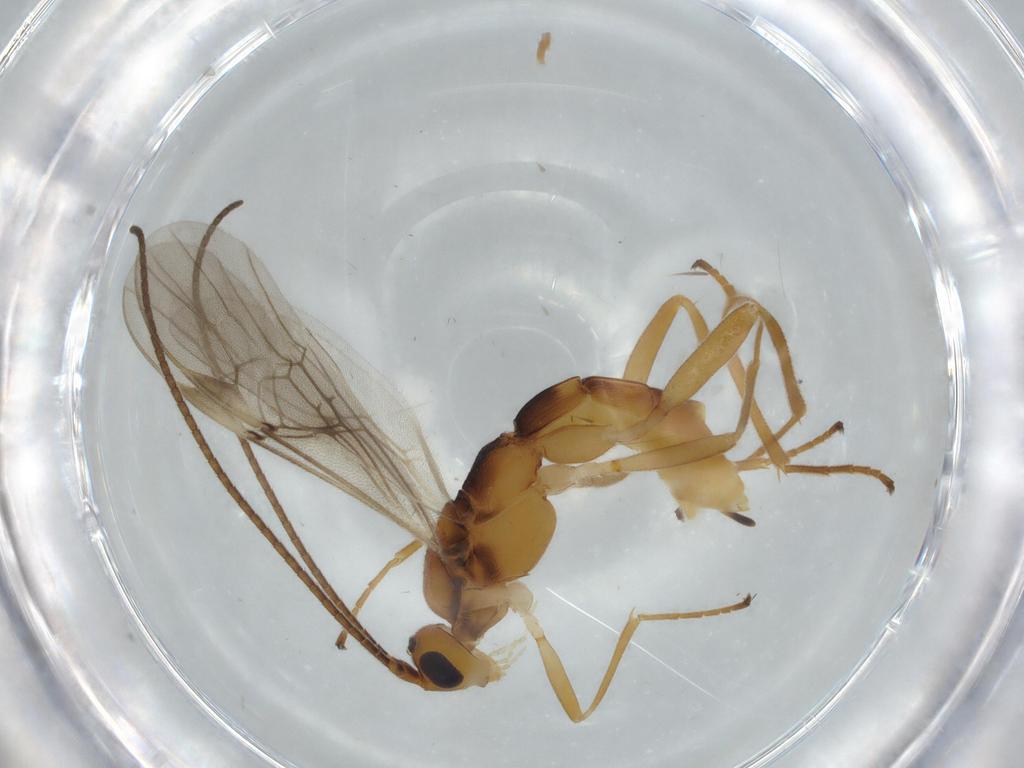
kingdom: Animalia
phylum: Arthropoda
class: Insecta
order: Hymenoptera
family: Braconidae
